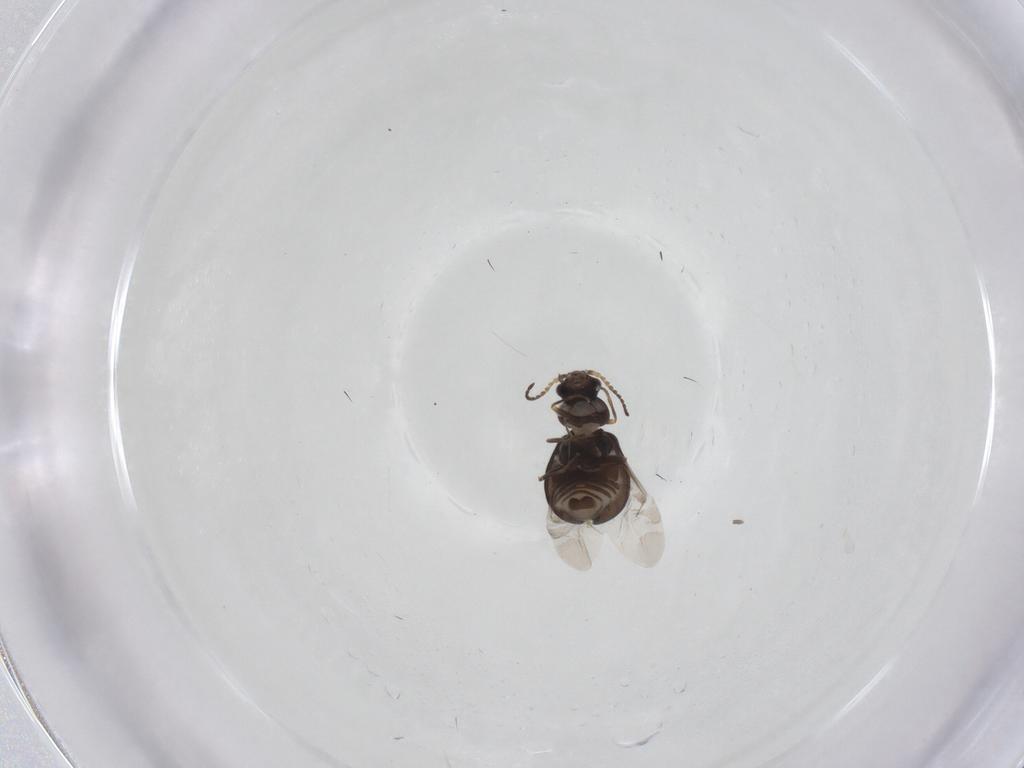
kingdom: Animalia
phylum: Arthropoda
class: Insecta
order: Coleoptera
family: Melyridae
